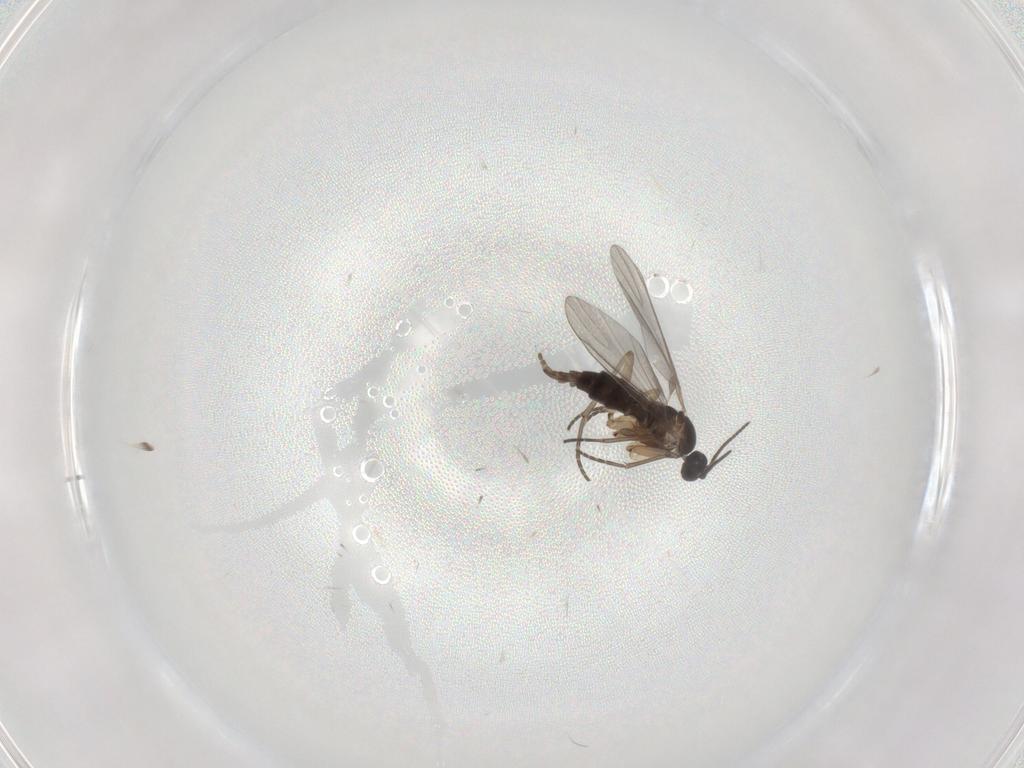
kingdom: Animalia
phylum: Arthropoda
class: Insecta
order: Diptera
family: Sciaridae
